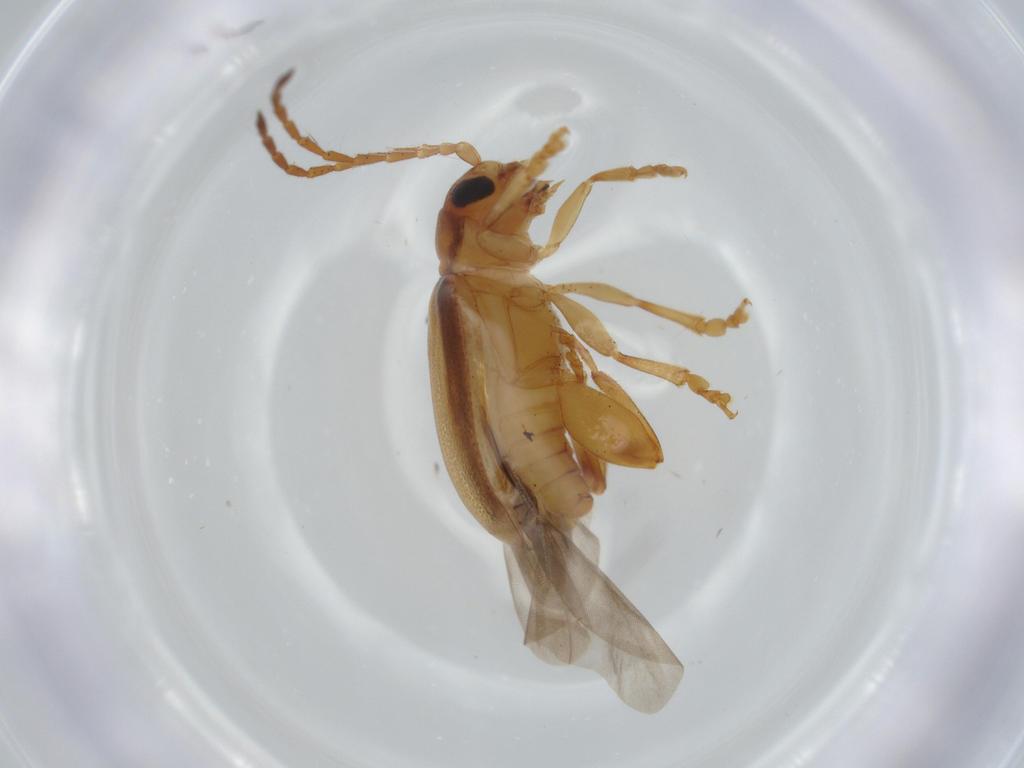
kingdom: Animalia
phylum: Arthropoda
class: Insecta
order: Coleoptera
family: Chrysomelidae
